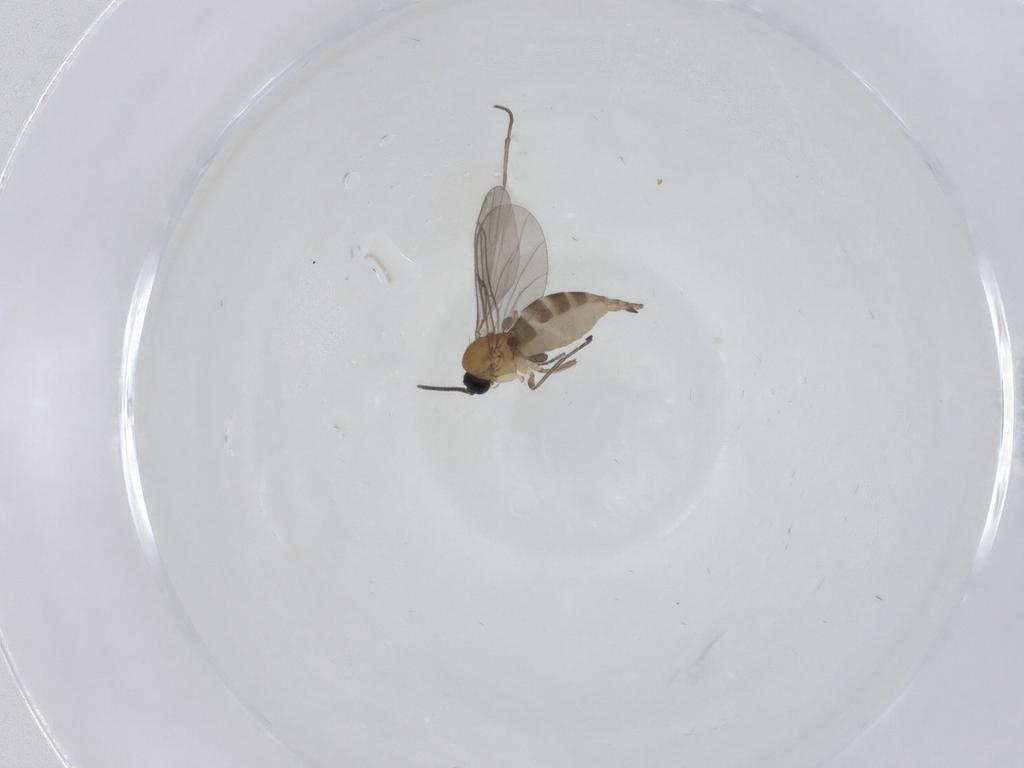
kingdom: Animalia
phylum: Arthropoda
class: Insecta
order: Diptera
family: Sciaridae
